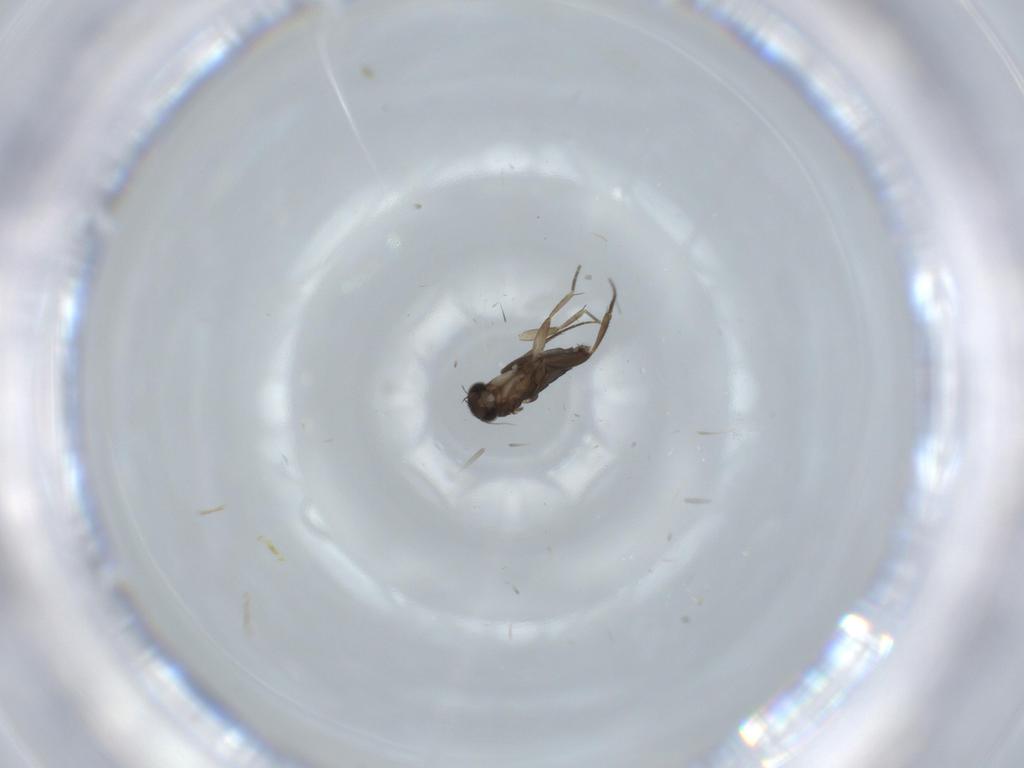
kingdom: Animalia
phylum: Arthropoda
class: Insecta
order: Diptera
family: Phoridae
